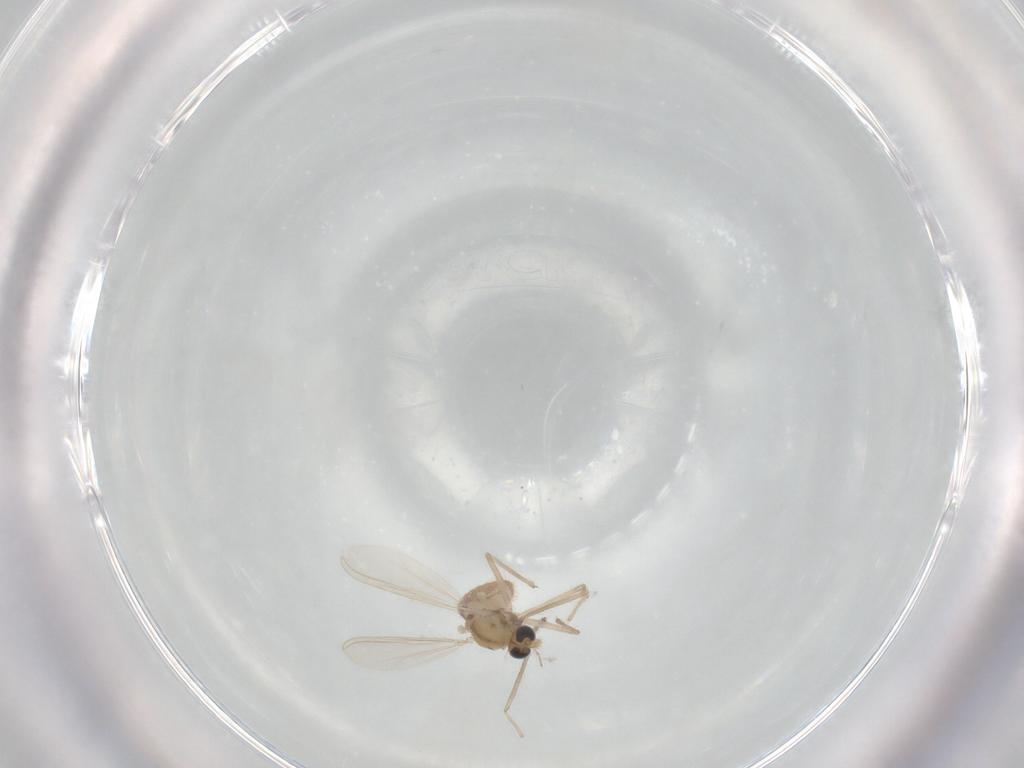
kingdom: Animalia
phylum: Arthropoda
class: Insecta
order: Diptera
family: Chironomidae
